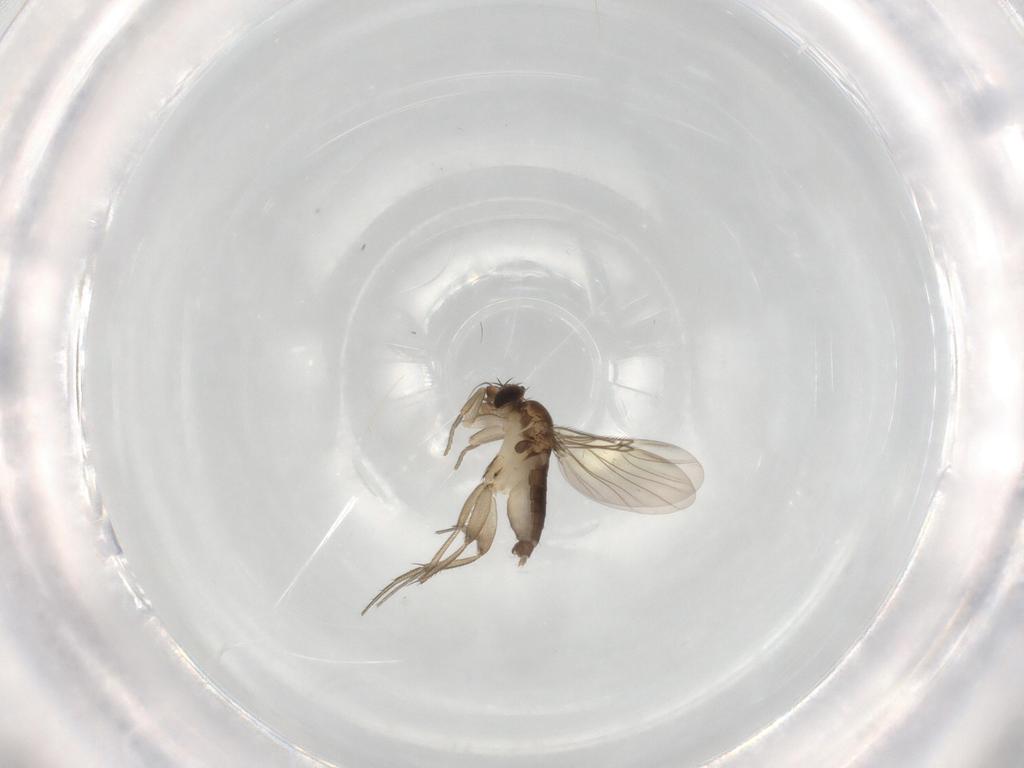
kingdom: Animalia
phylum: Arthropoda
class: Insecta
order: Diptera
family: Phoridae
